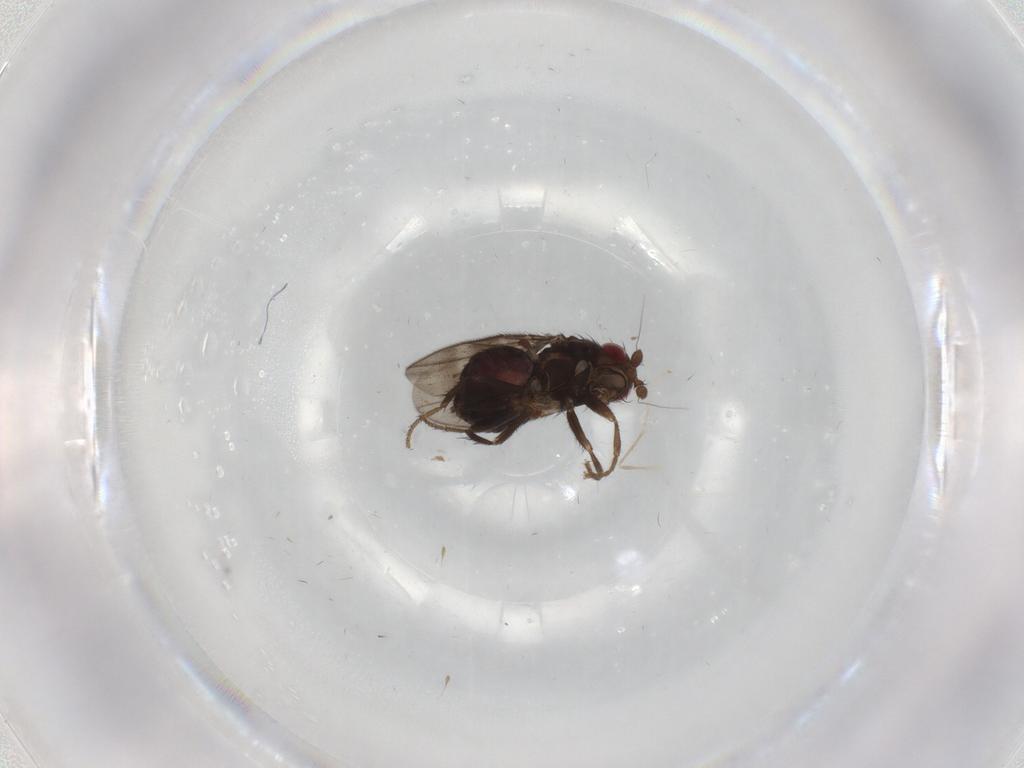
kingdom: Animalia
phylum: Arthropoda
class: Insecta
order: Diptera
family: Sphaeroceridae
